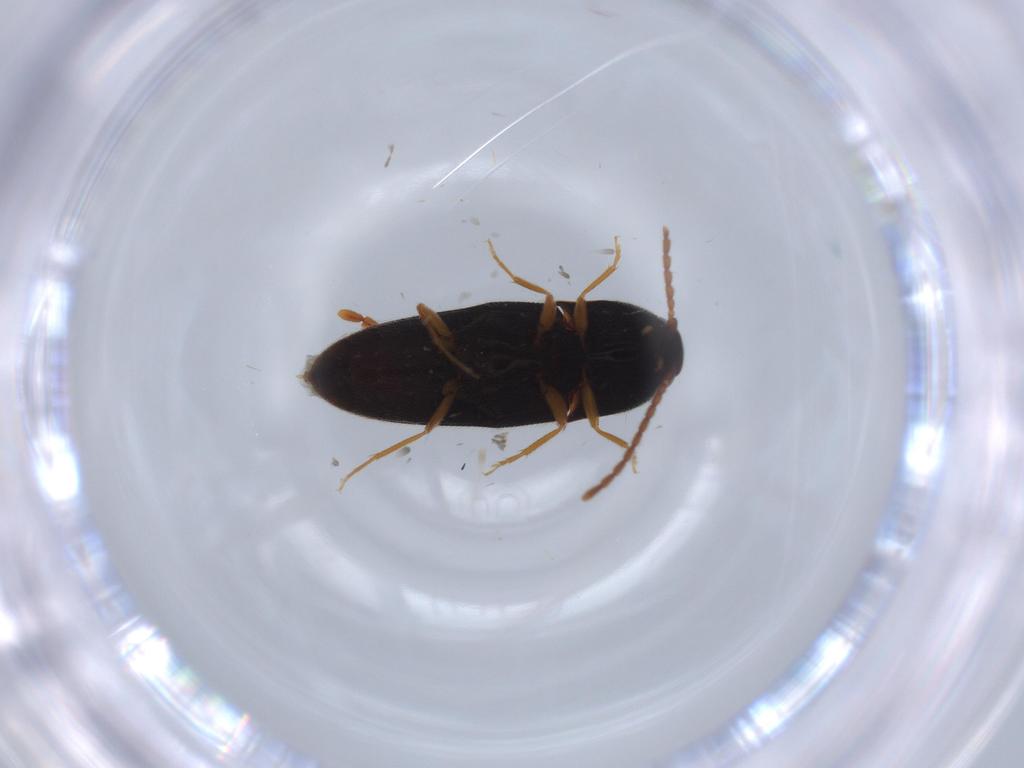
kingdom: Animalia
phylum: Arthropoda
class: Insecta
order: Coleoptera
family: Elateridae
